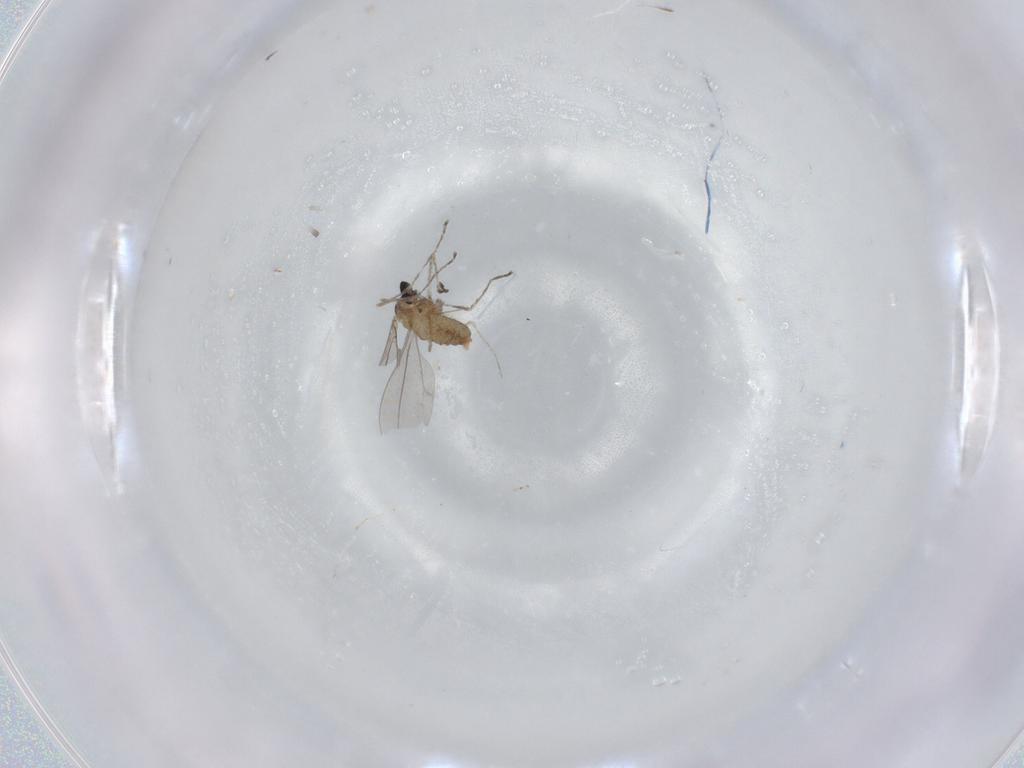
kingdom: Animalia
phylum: Arthropoda
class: Insecta
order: Diptera
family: Cecidomyiidae
